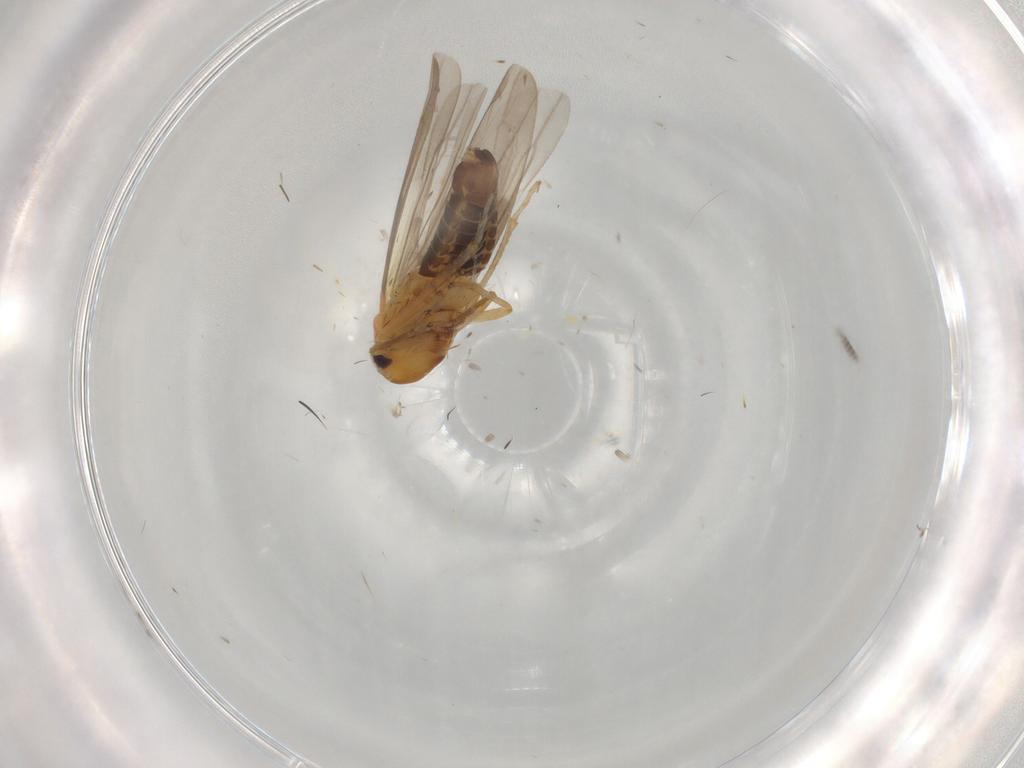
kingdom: Animalia
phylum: Arthropoda
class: Insecta
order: Hemiptera
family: Cicadellidae
